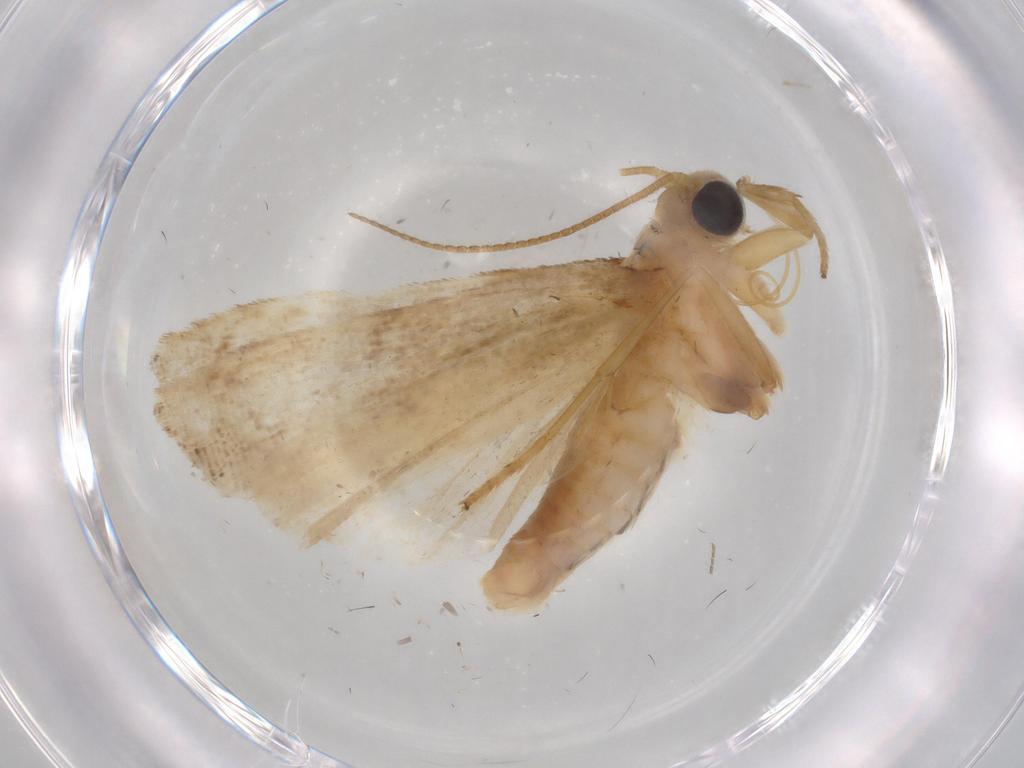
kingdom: Animalia
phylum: Arthropoda
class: Insecta
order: Lepidoptera
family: Pyralidae
